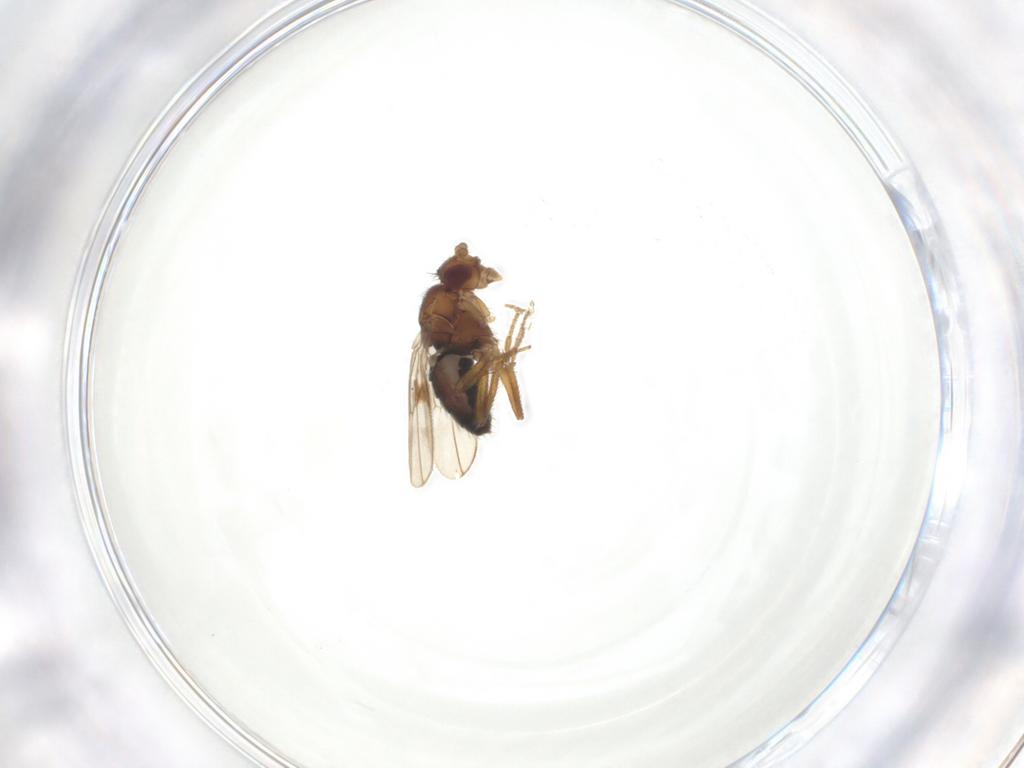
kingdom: Animalia
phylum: Arthropoda
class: Insecta
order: Diptera
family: Sphaeroceridae
